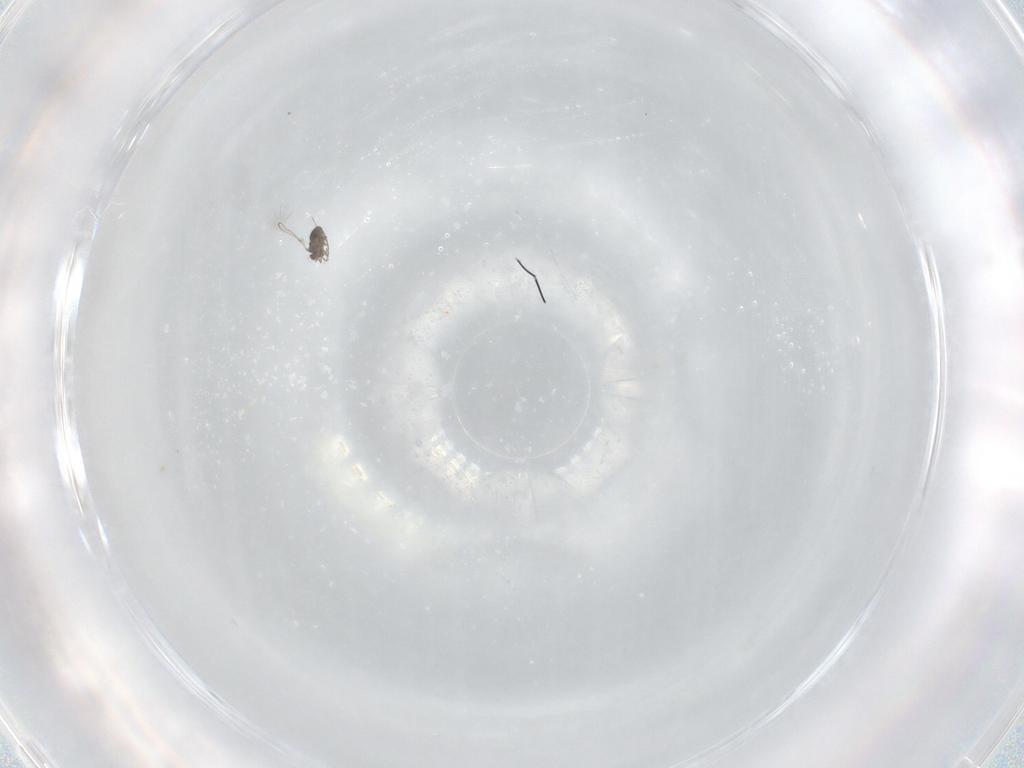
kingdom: Animalia
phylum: Arthropoda
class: Insecta
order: Hymenoptera
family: Mymaridae
